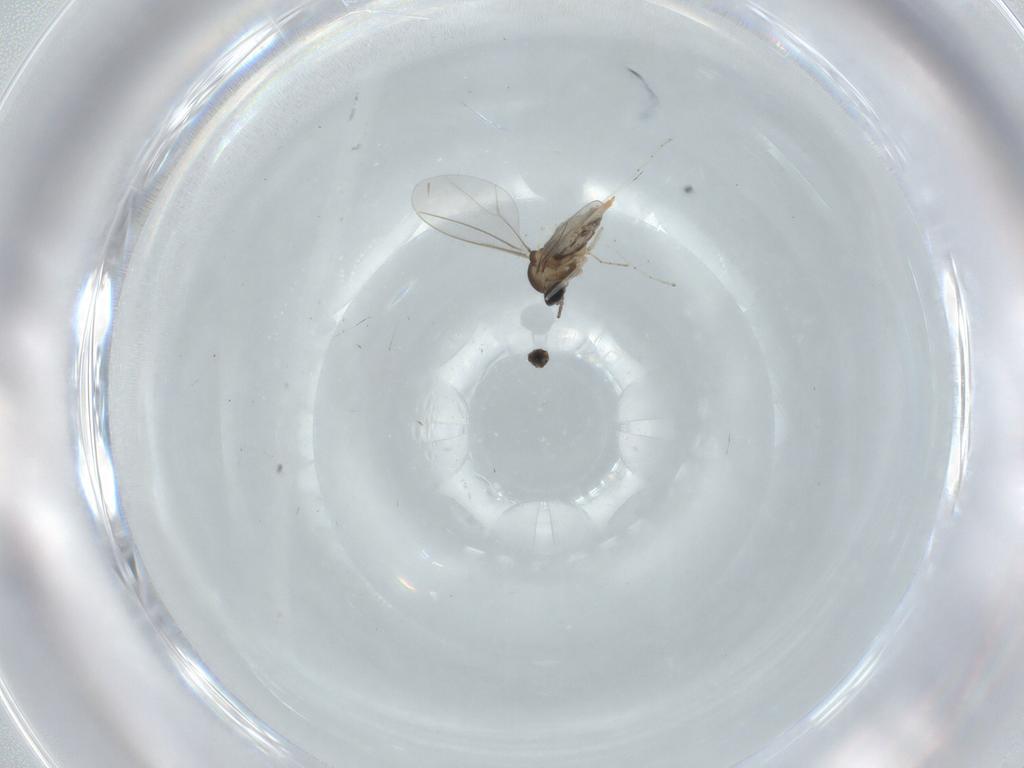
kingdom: Animalia
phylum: Arthropoda
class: Insecta
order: Diptera
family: Cecidomyiidae
